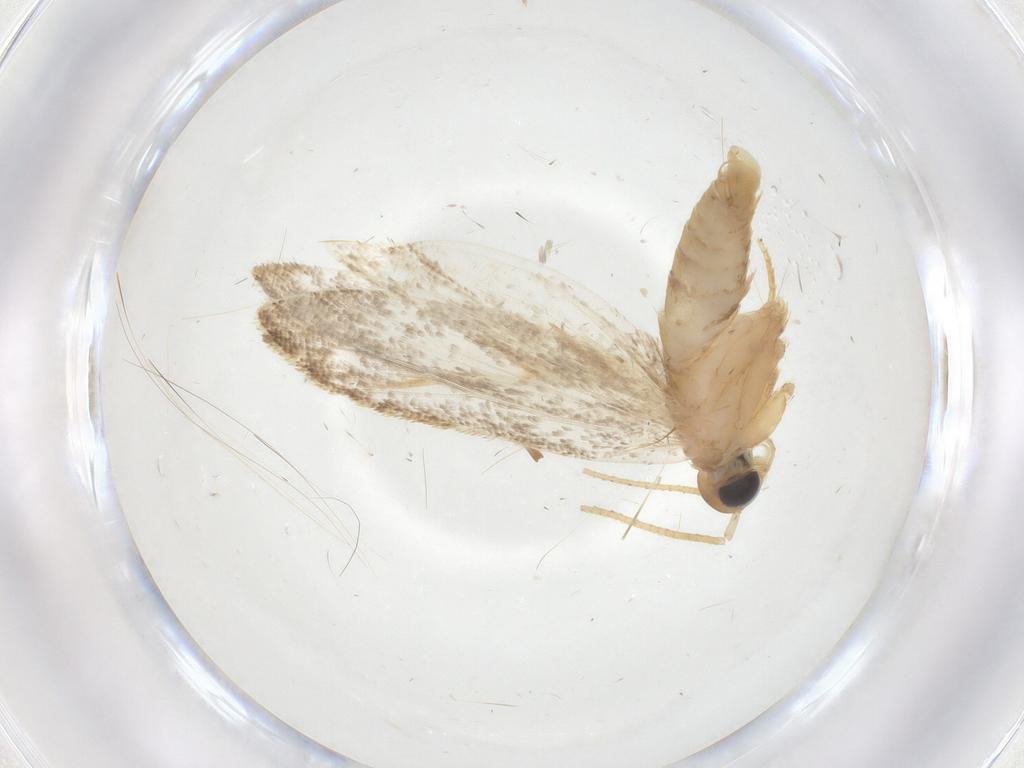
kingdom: Animalia
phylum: Arthropoda
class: Insecta
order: Lepidoptera
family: Oecophoridae
